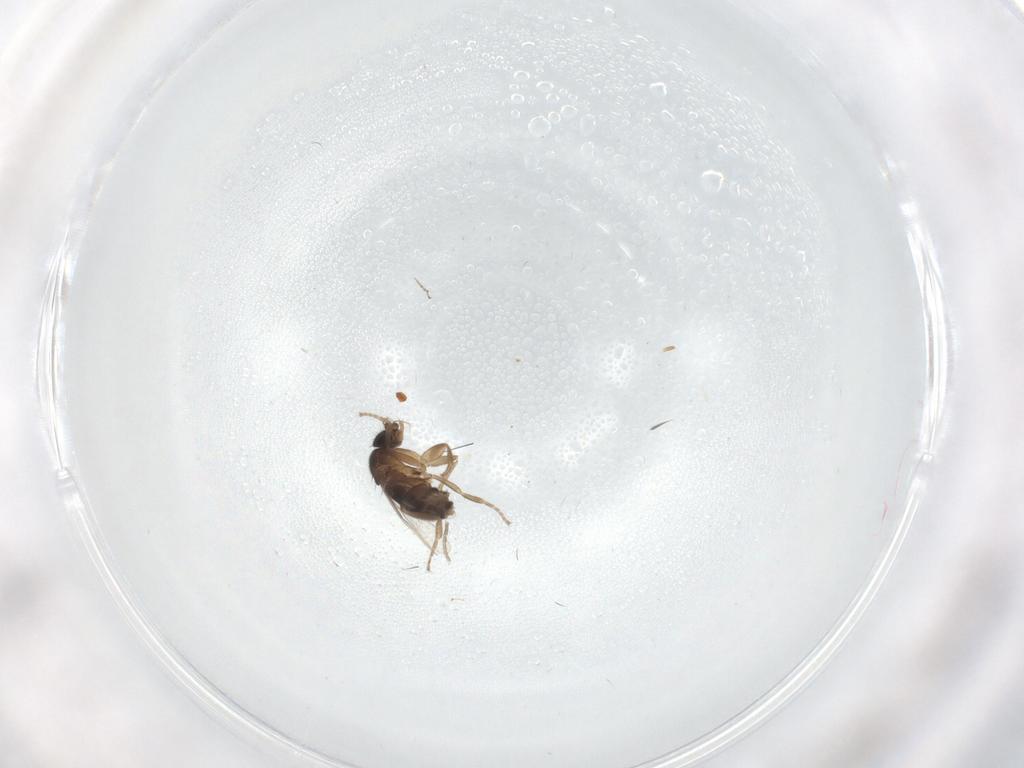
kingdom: Animalia
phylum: Arthropoda
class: Insecta
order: Diptera
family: Phoridae
